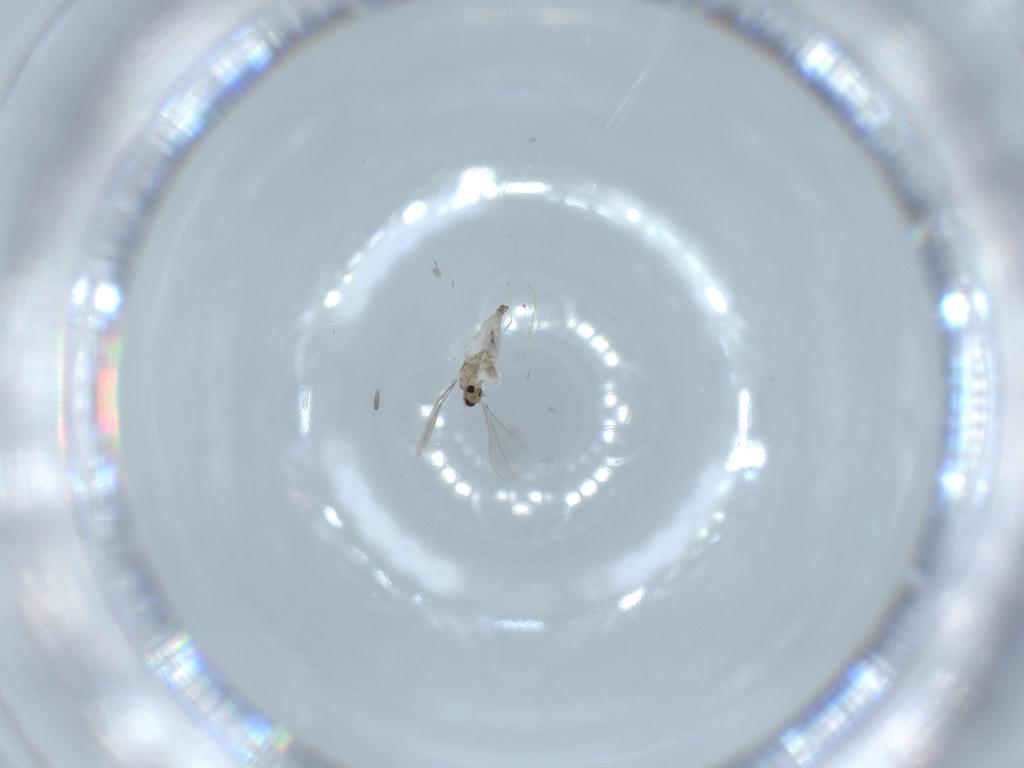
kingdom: Animalia
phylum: Arthropoda
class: Insecta
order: Diptera
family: Cecidomyiidae
